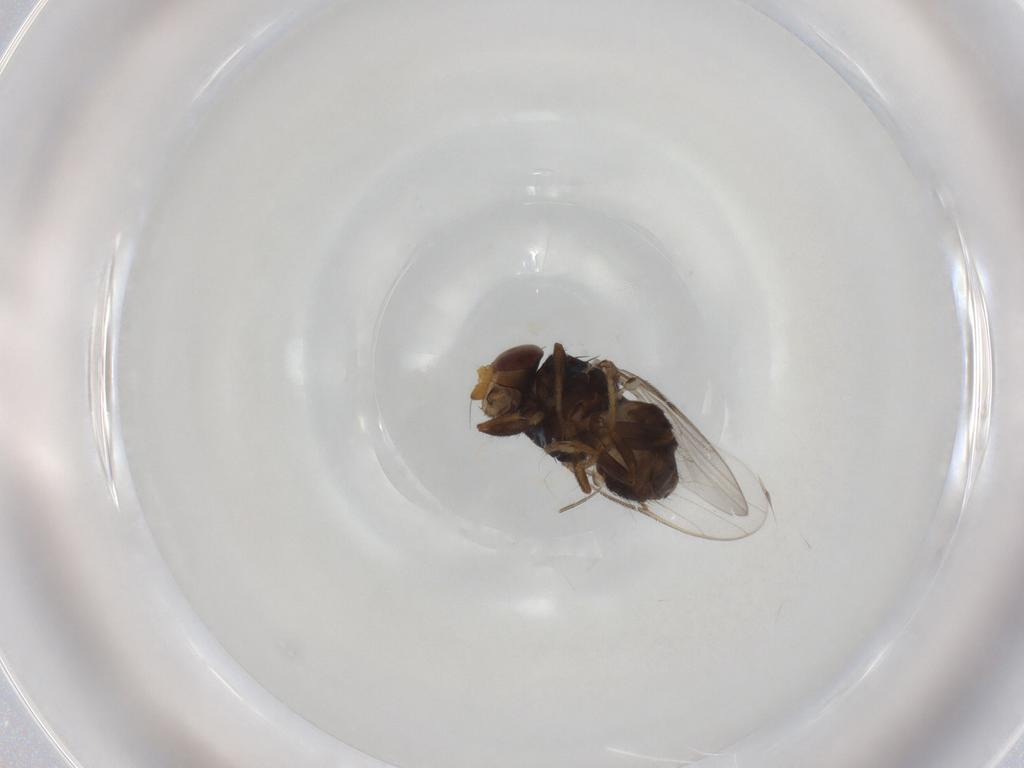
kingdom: Animalia
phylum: Arthropoda
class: Insecta
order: Diptera
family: Chloropidae
